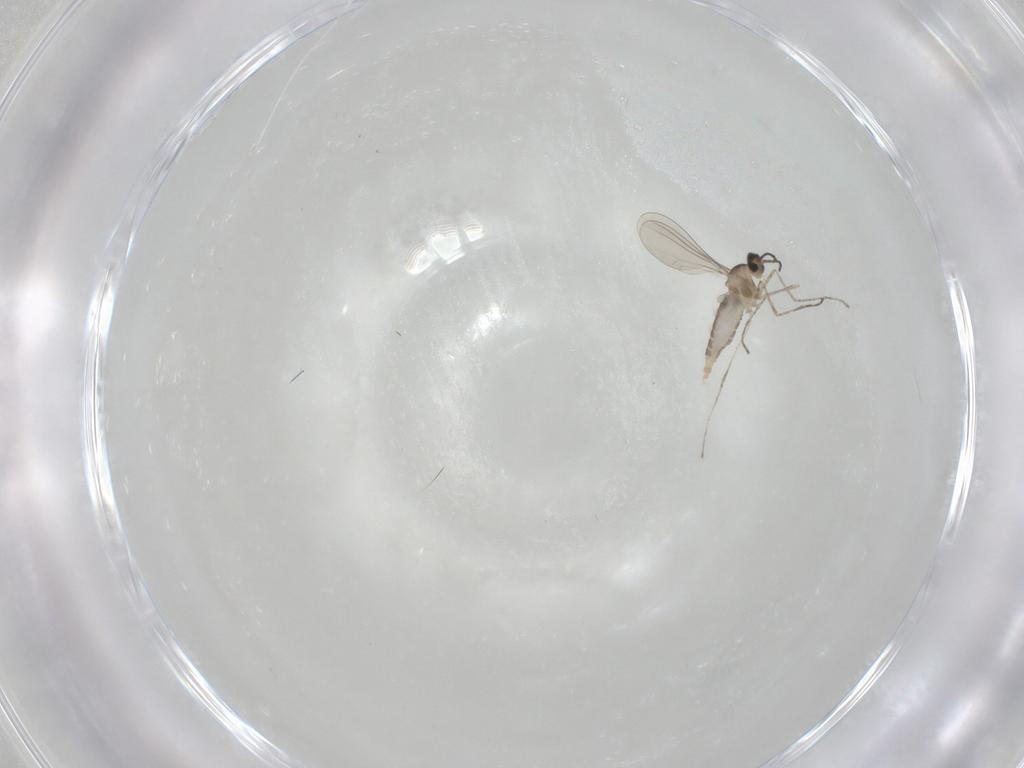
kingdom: Animalia
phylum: Arthropoda
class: Insecta
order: Diptera
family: Cecidomyiidae
